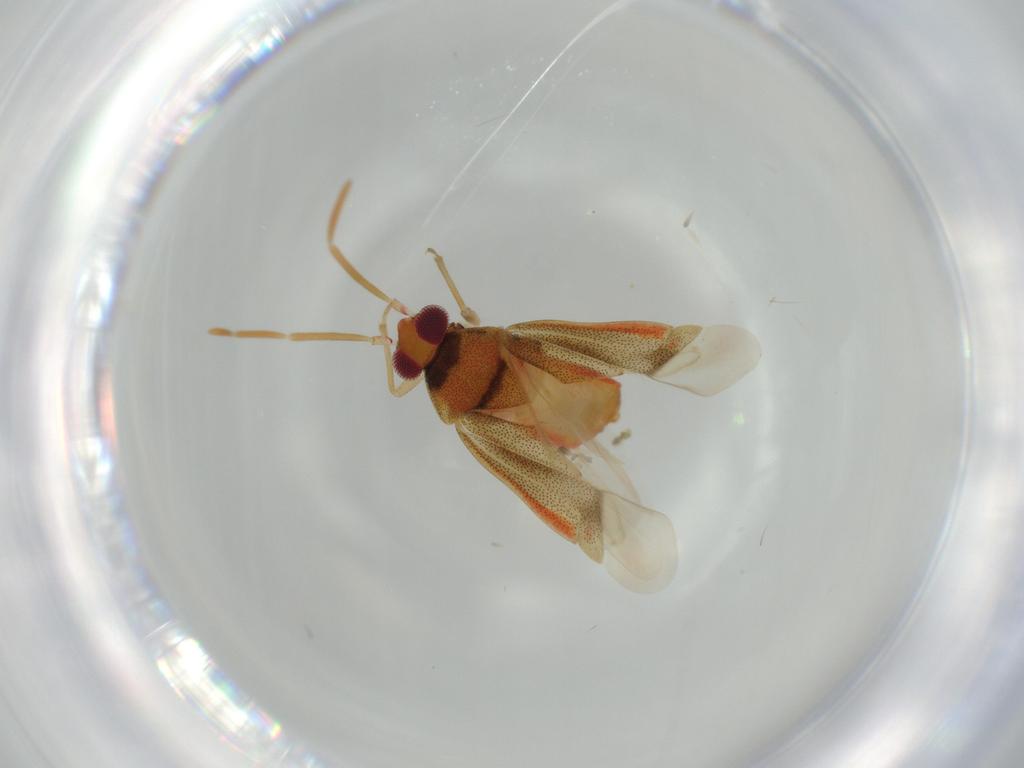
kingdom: Animalia
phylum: Arthropoda
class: Insecta
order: Hemiptera
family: Miridae
